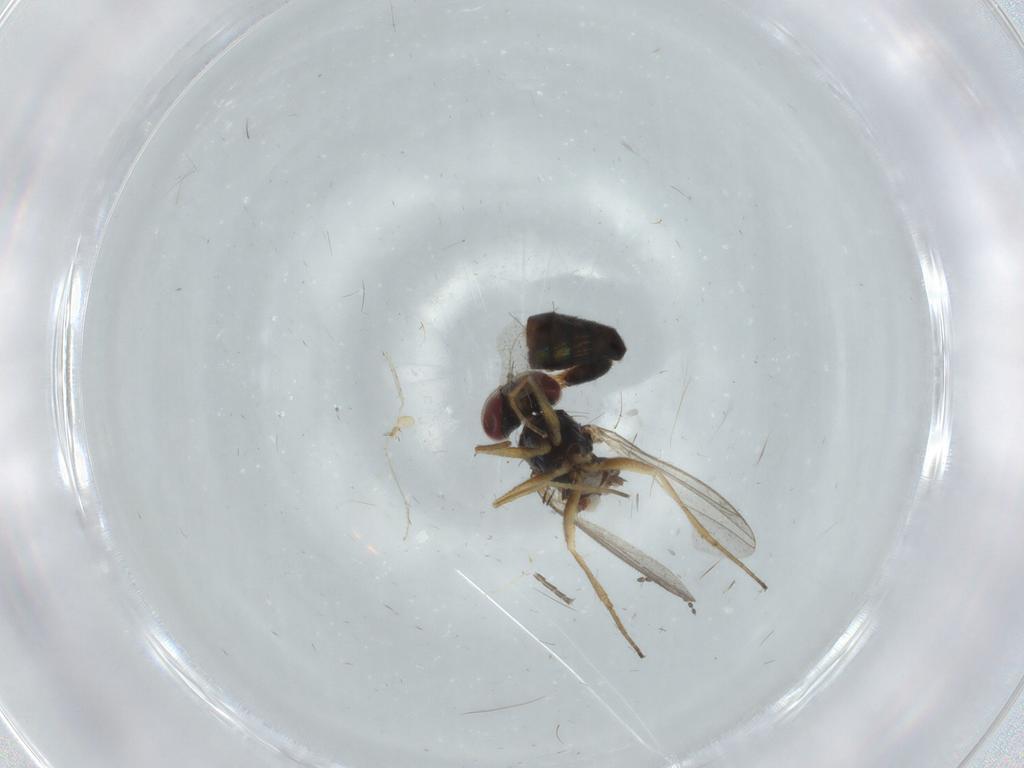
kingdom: Animalia
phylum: Arthropoda
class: Insecta
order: Diptera
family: Dolichopodidae
